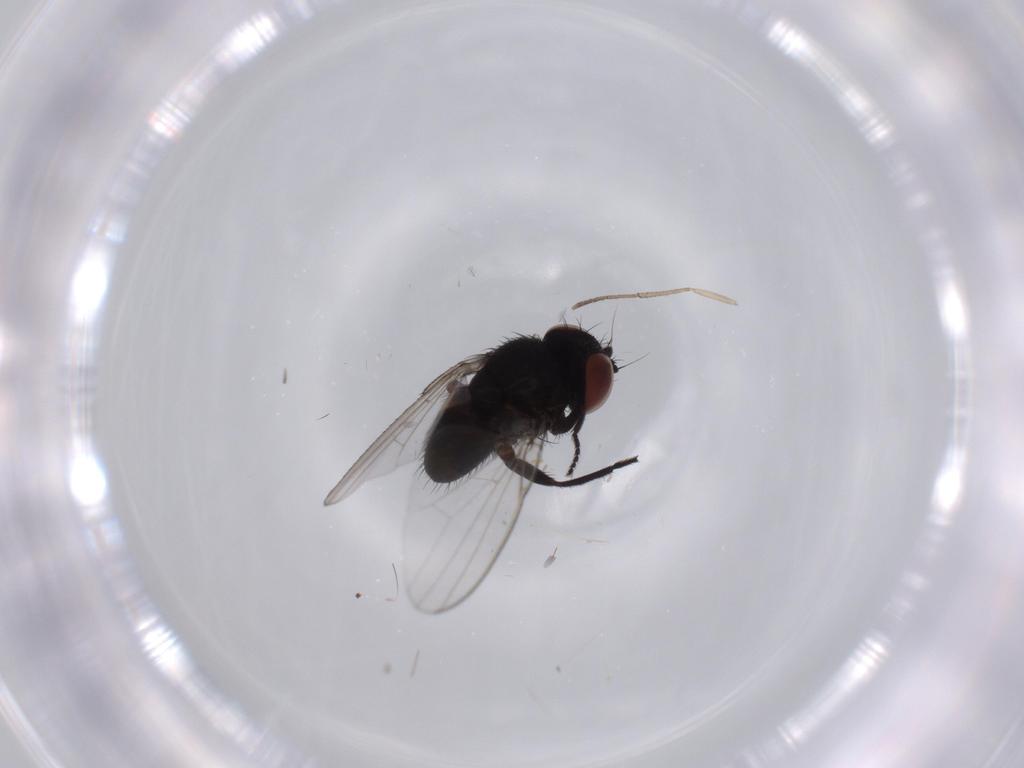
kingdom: Animalia
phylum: Arthropoda
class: Insecta
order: Diptera
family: Milichiidae
